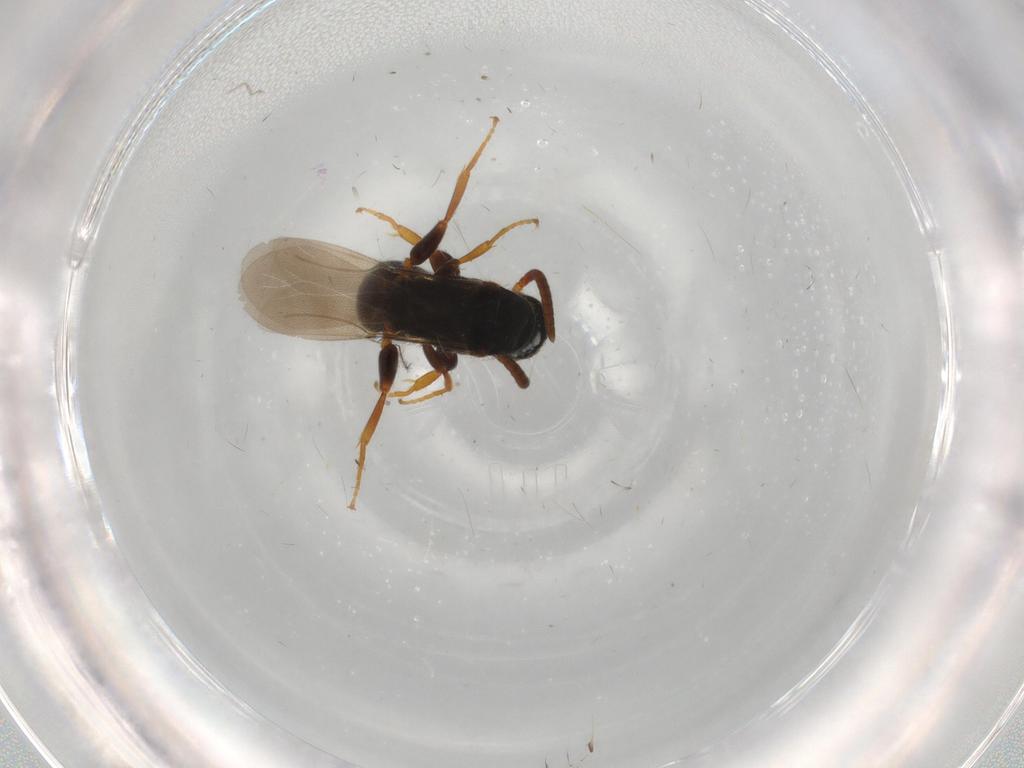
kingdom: Animalia
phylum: Arthropoda
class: Insecta
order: Hymenoptera
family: Bethylidae
